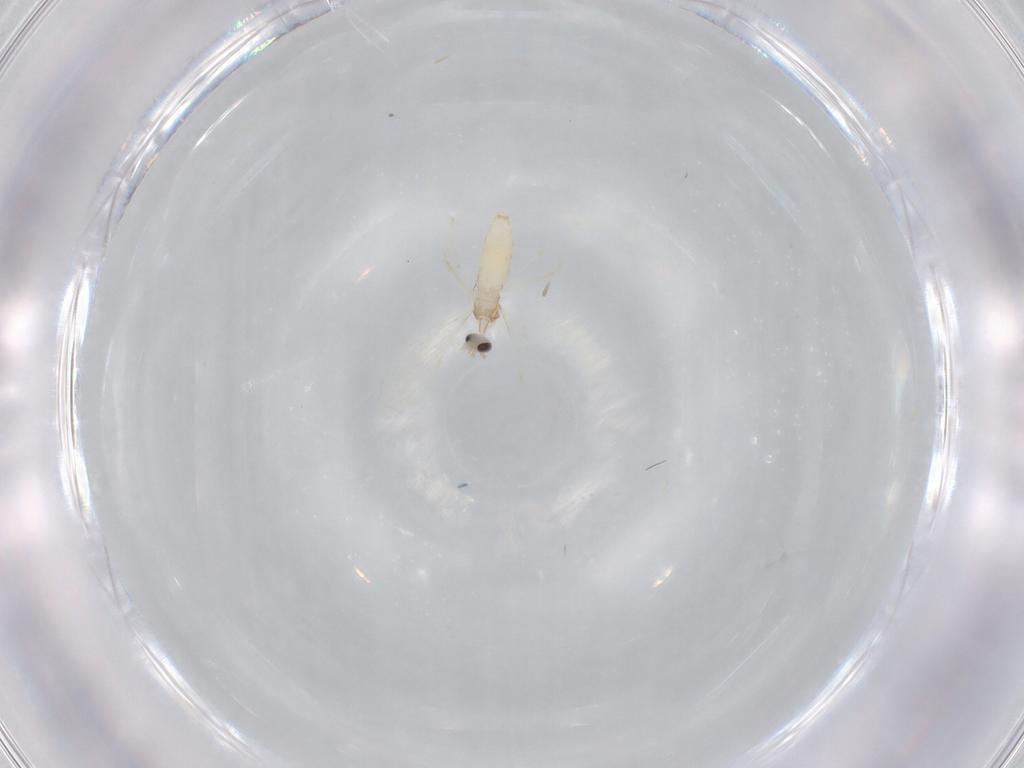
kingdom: Animalia
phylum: Arthropoda
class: Insecta
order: Diptera
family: Cecidomyiidae
